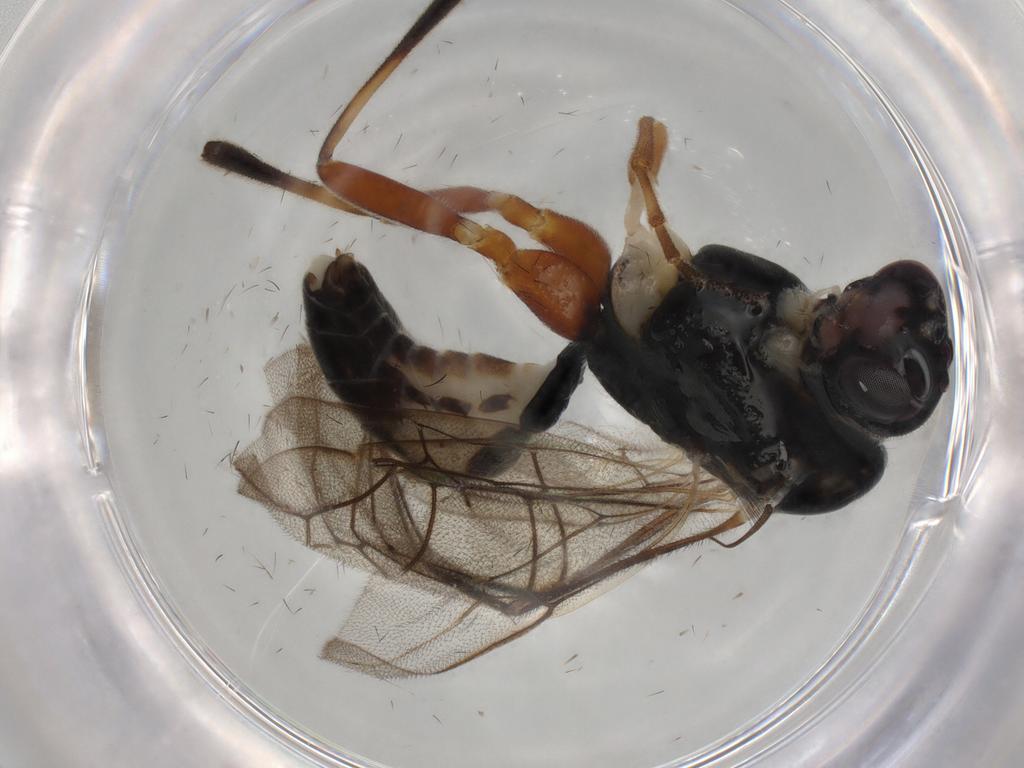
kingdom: Animalia
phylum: Arthropoda
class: Insecta
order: Hymenoptera
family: Ichneumonidae
